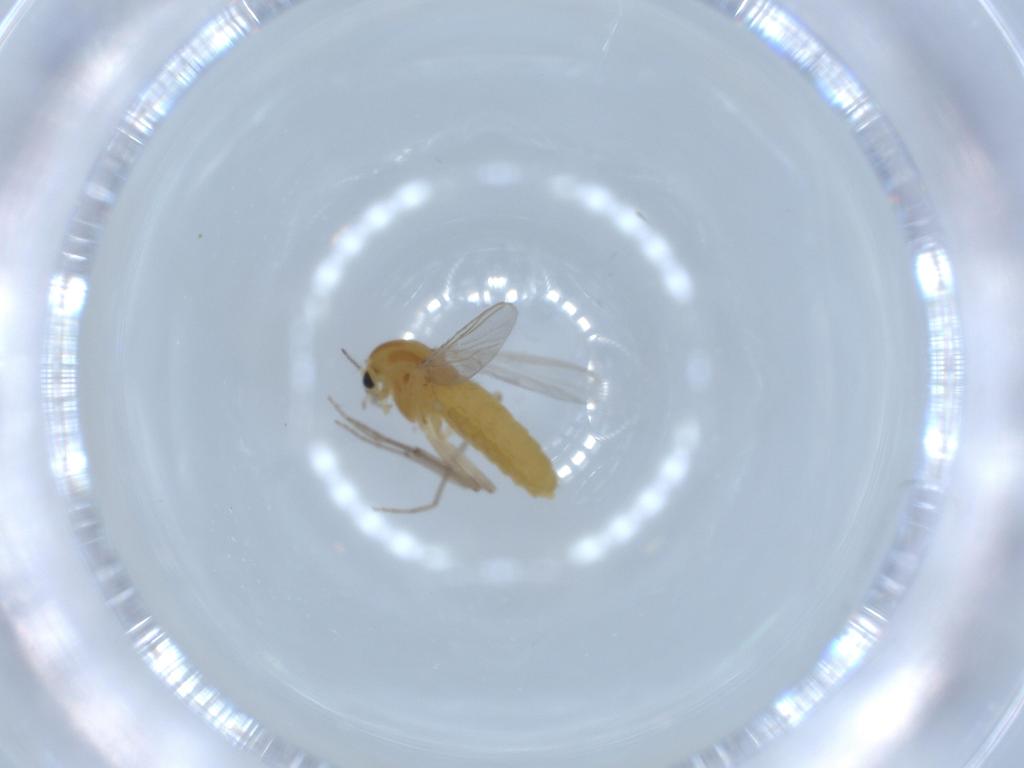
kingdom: Animalia
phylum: Arthropoda
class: Insecta
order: Diptera
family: Chironomidae
